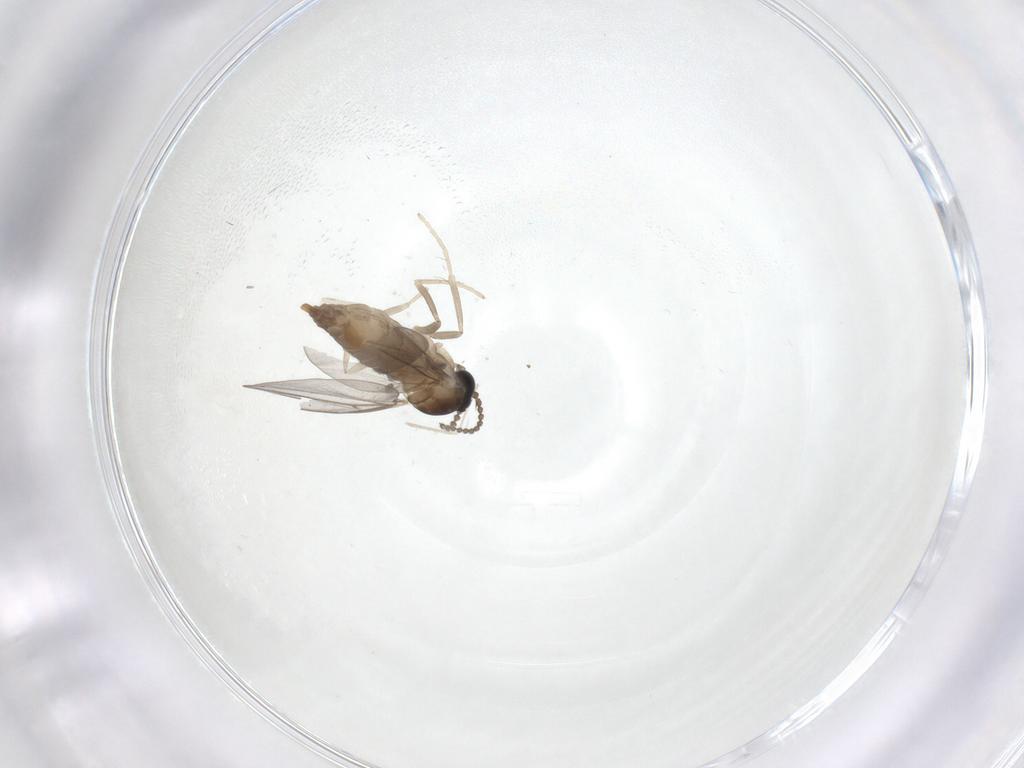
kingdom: Animalia
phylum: Arthropoda
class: Insecta
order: Diptera
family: Cecidomyiidae
